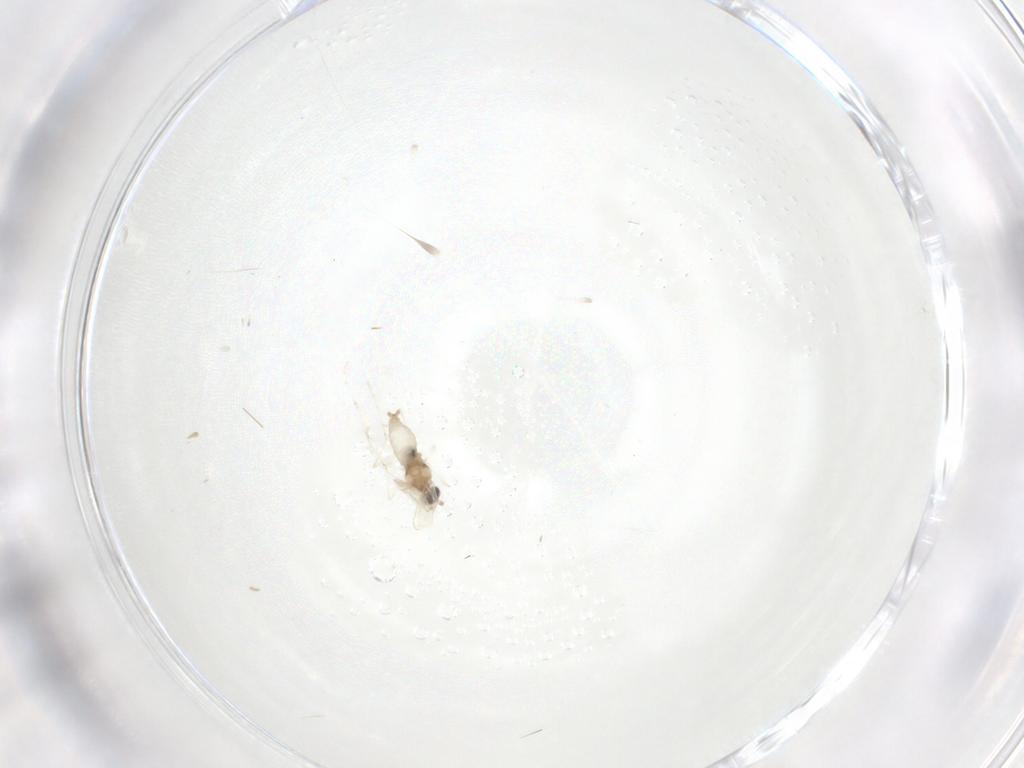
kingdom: Animalia
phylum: Arthropoda
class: Insecta
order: Diptera
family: Cecidomyiidae
